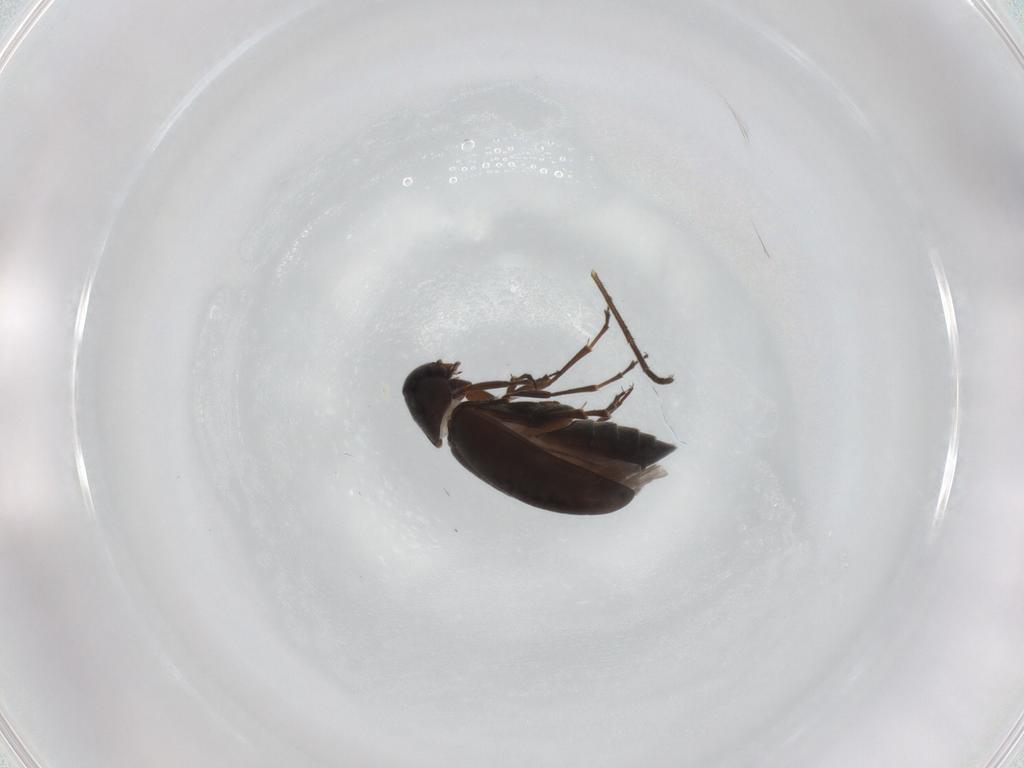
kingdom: Animalia
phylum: Arthropoda
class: Insecta
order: Coleoptera
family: Scraptiidae
